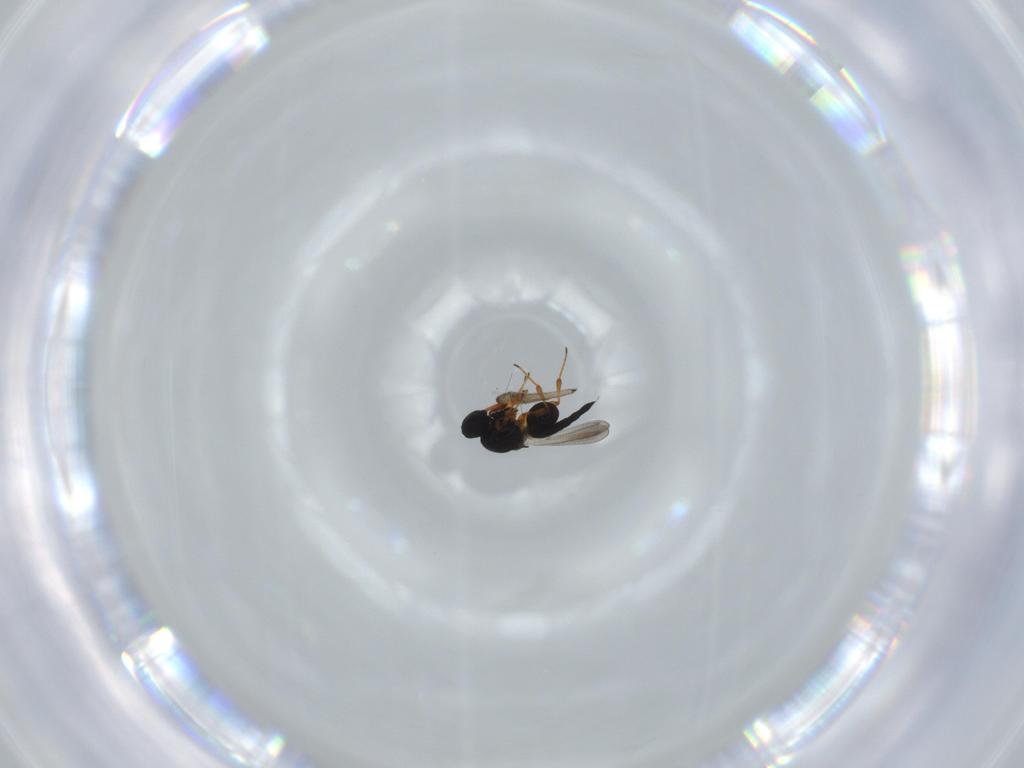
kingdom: Animalia
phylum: Arthropoda
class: Insecta
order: Hymenoptera
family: Platygastridae
